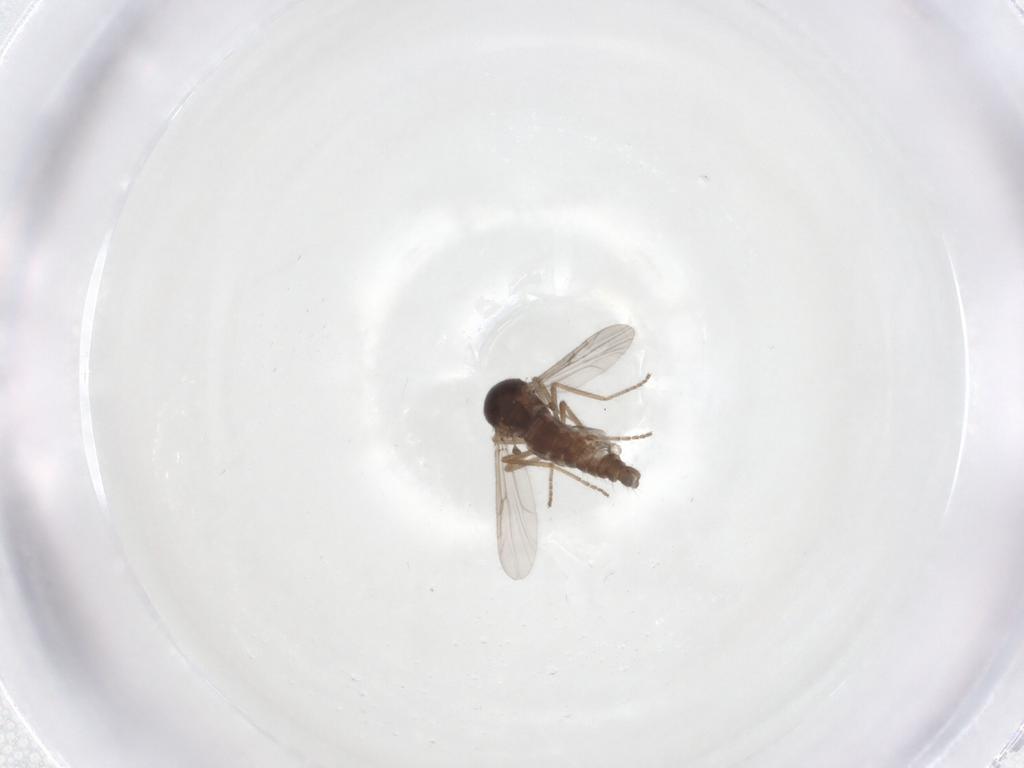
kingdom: Animalia
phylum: Arthropoda
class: Insecta
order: Diptera
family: Ceratopogonidae
